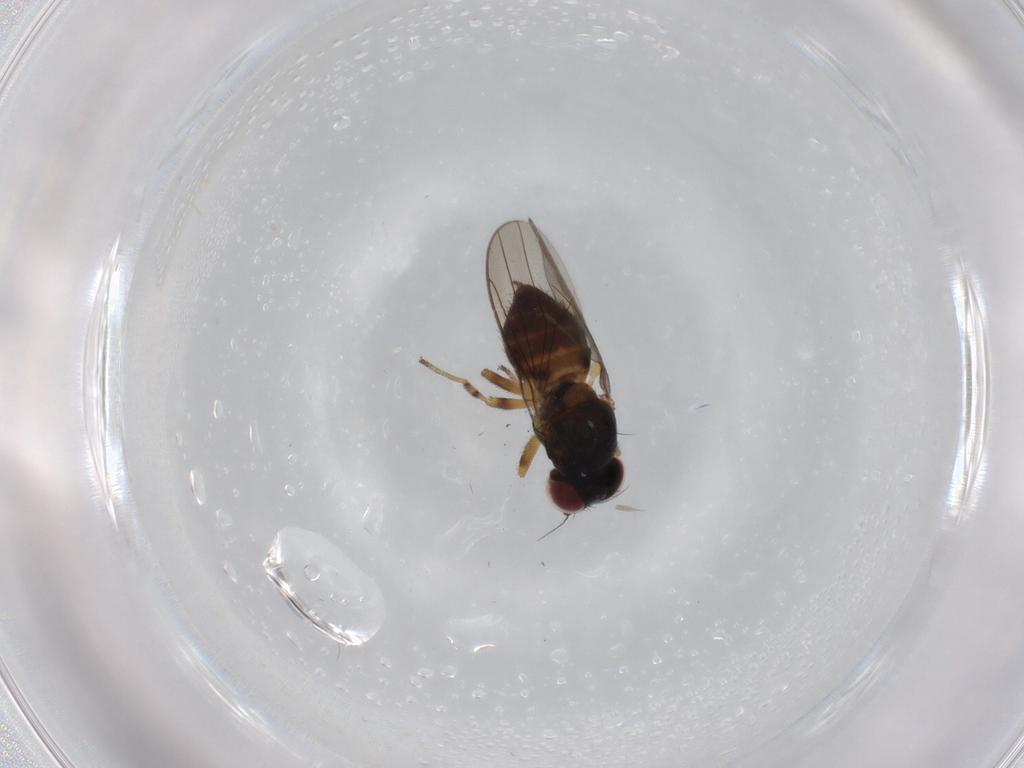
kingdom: Animalia
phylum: Arthropoda
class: Insecta
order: Diptera
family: Chloropidae
